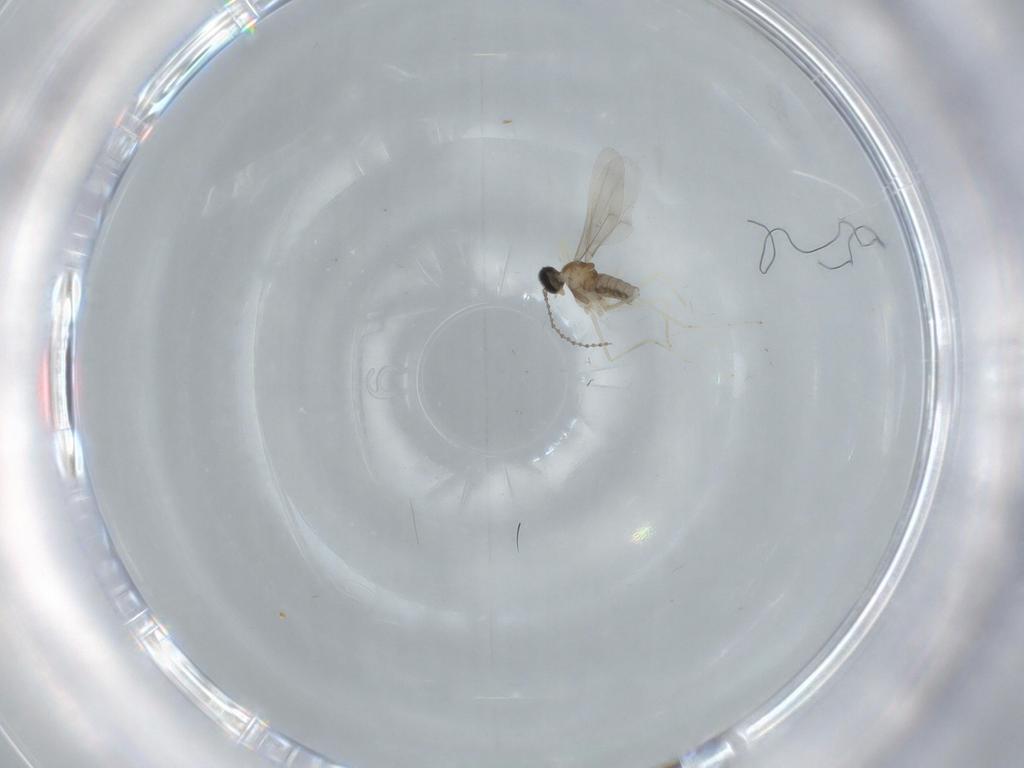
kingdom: Animalia
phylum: Arthropoda
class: Insecta
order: Diptera
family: Cecidomyiidae
